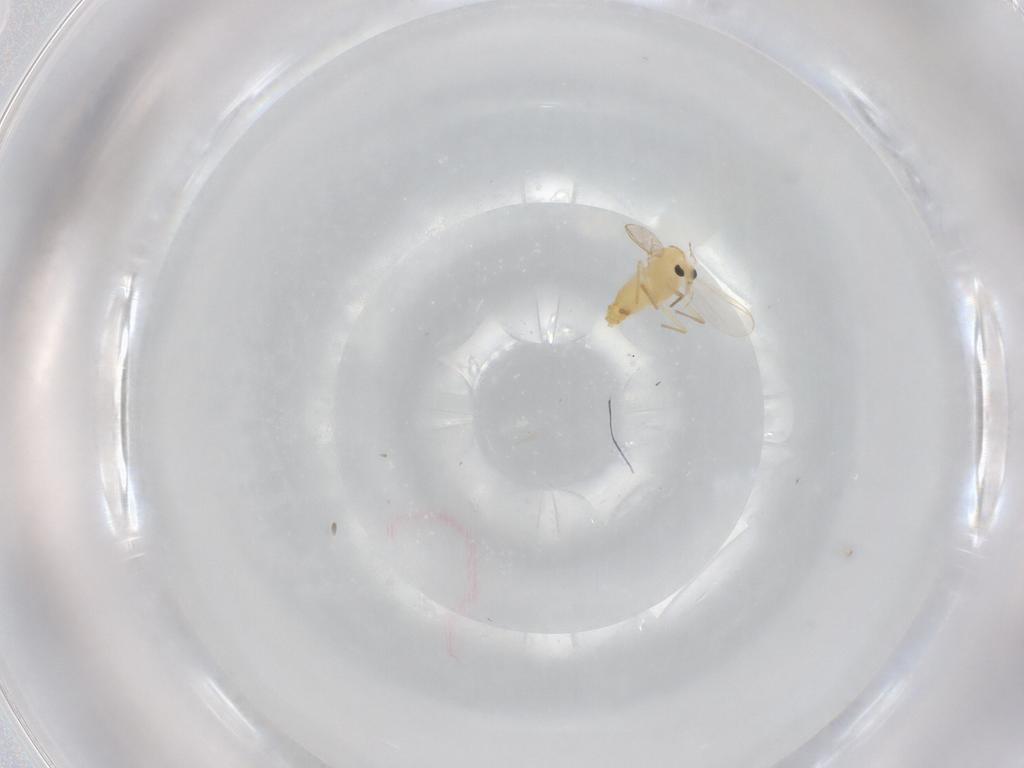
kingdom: Animalia
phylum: Arthropoda
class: Insecta
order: Diptera
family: Chironomidae
